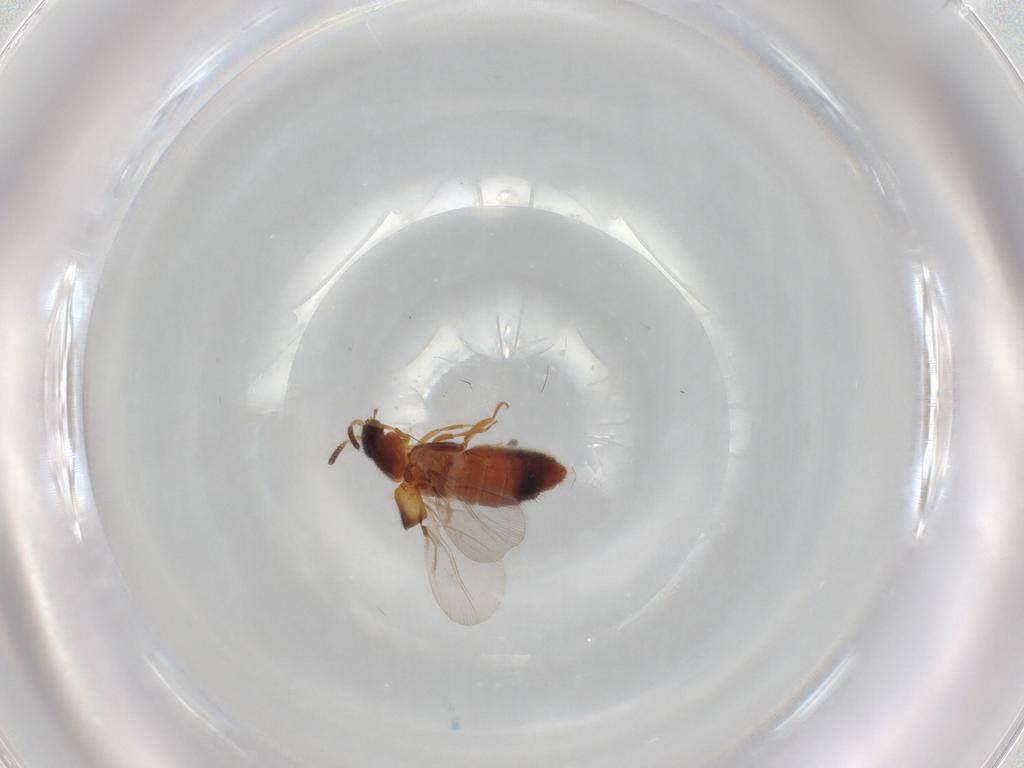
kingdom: Animalia
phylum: Arthropoda
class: Insecta
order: Coleoptera
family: Staphylinidae
